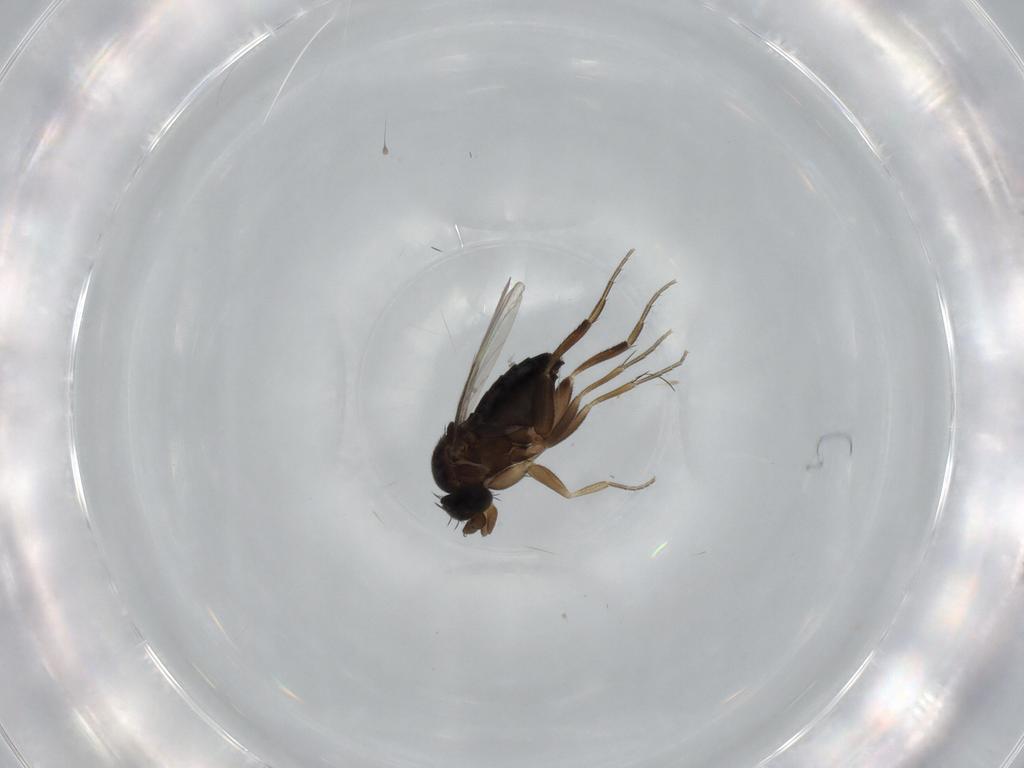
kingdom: Animalia
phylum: Arthropoda
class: Insecta
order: Diptera
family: Phoridae
